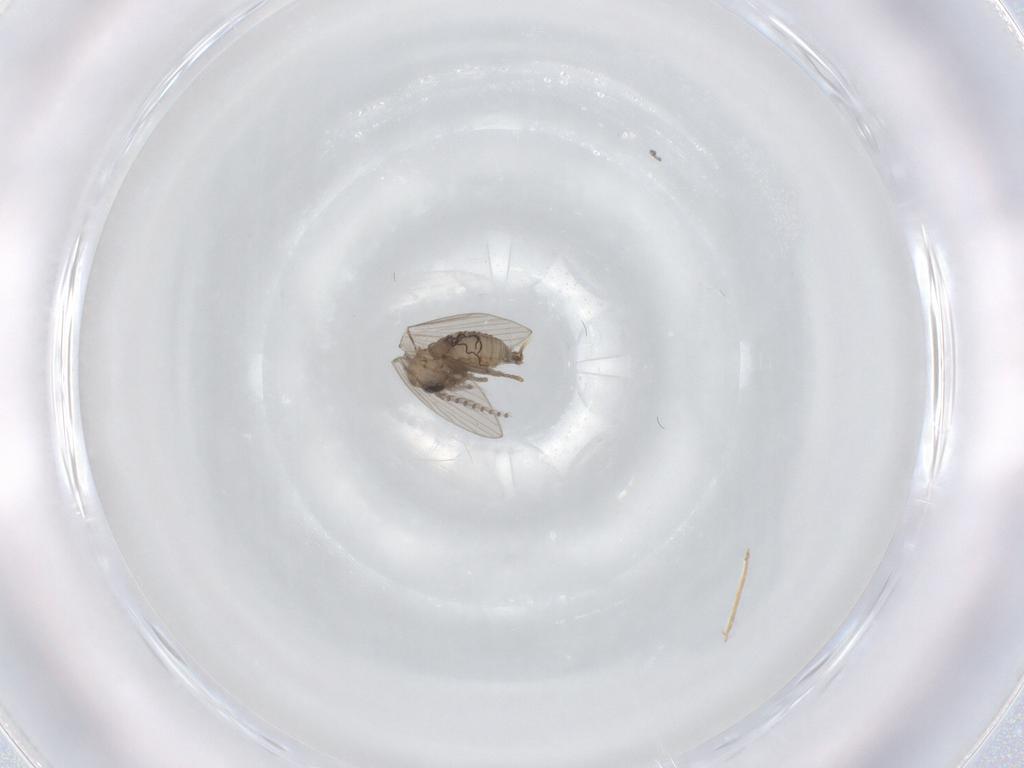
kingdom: Animalia
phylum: Arthropoda
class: Insecta
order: Diptera
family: Psychodidae
